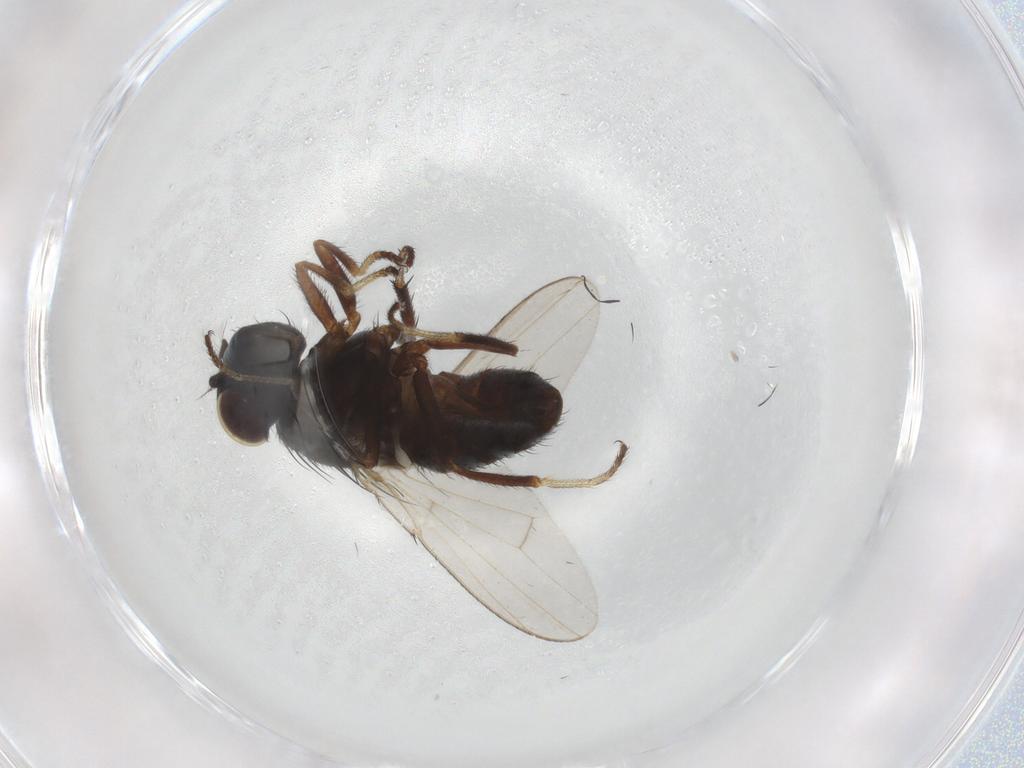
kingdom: Animalia
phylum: Arthropoda
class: Insecta
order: Diptera
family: Ephydridae
